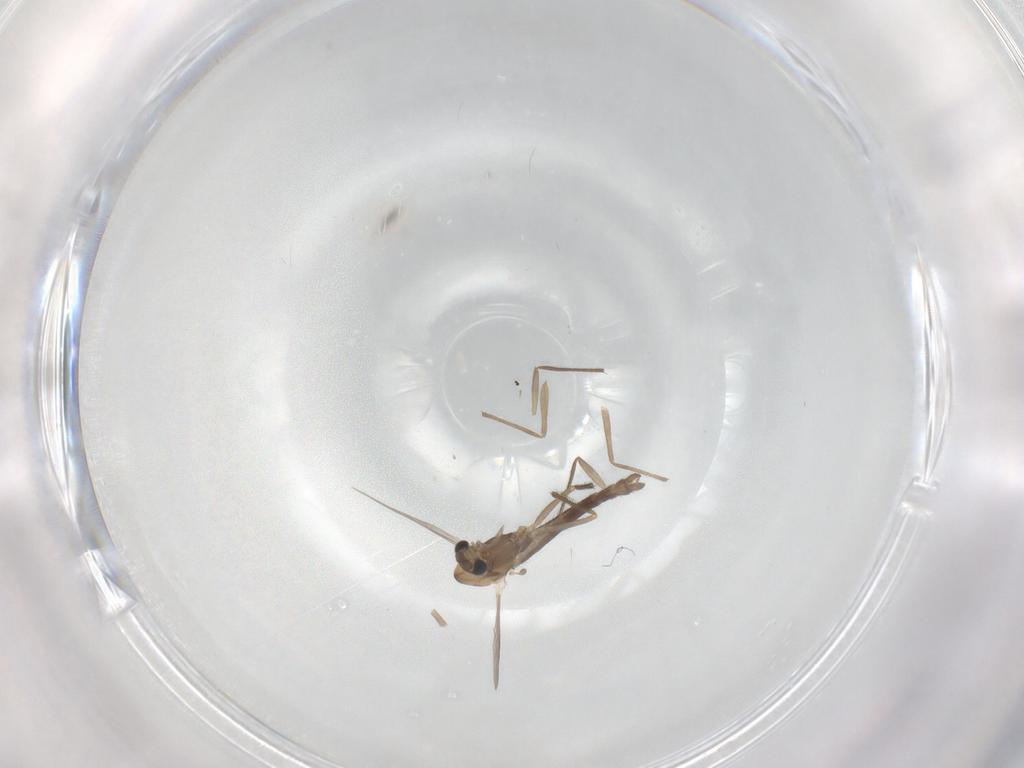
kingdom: Animalia
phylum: Arthropoda
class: Insecta
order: Diptera
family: Chironomidae
